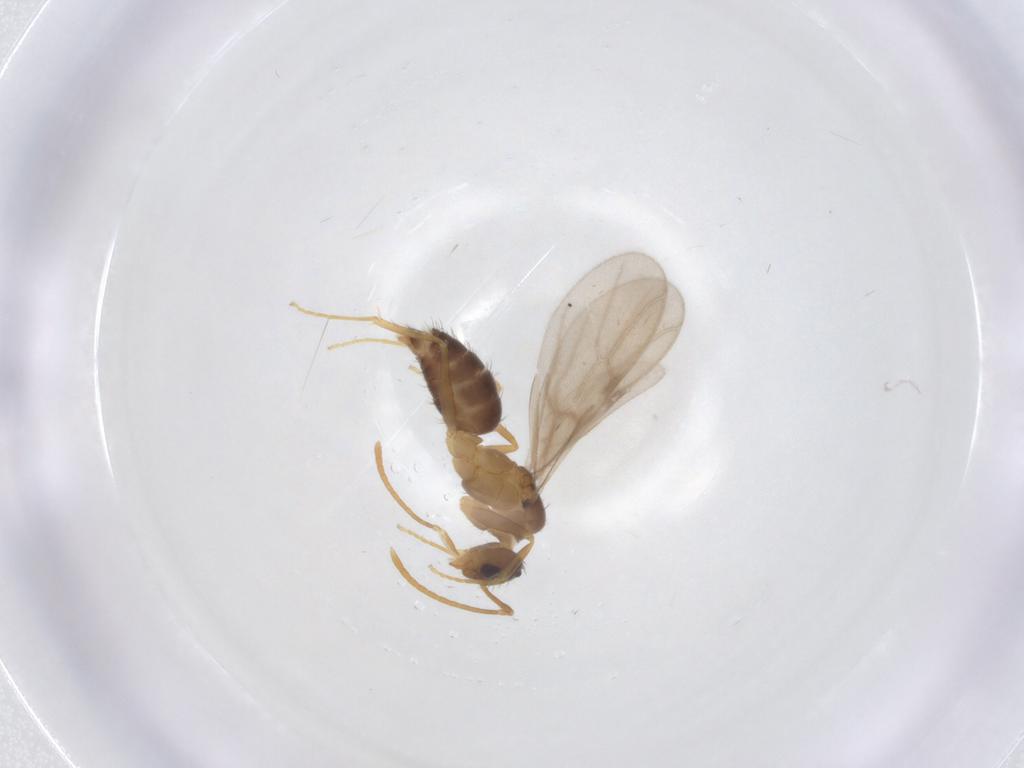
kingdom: Animalia
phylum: Arthropoda
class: Insecta
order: Hymenoptera
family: Formicidae
